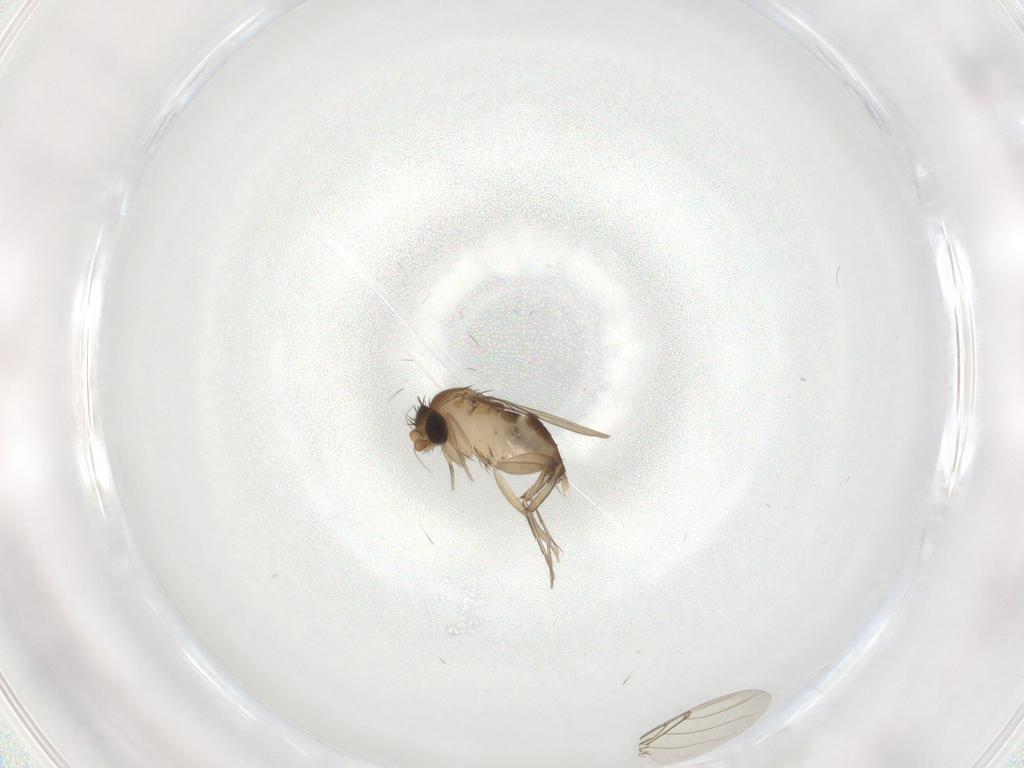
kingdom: Animalia
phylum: Arthropoda
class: Insecta
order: Diptera
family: Phoridae
